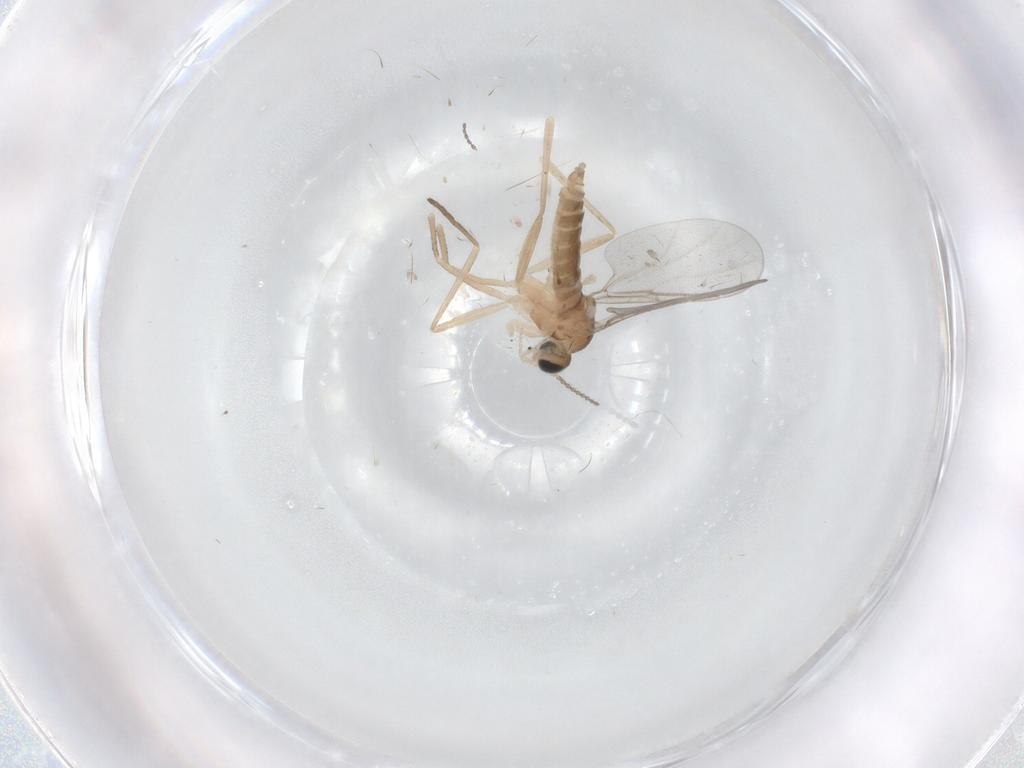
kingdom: Animalia
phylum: Arthropoda
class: Insecta
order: Diptera
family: Cecidomyiidae
